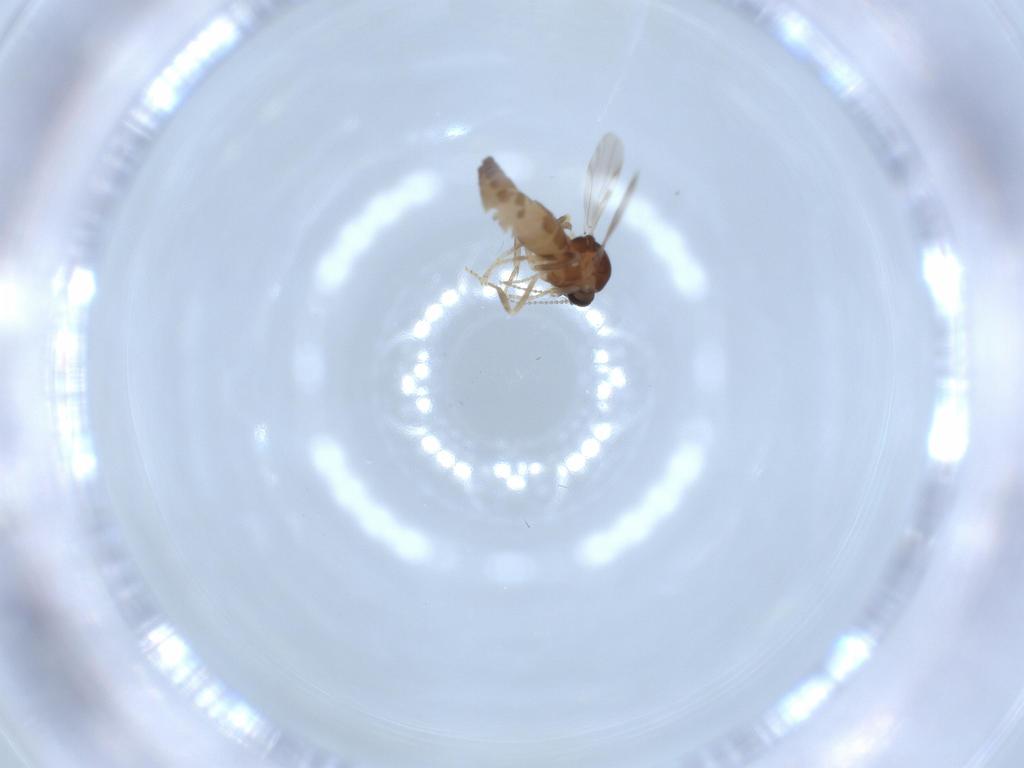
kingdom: Animalia
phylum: Arthropoda
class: Insecta
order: Diptera
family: Ceratopogonidae
